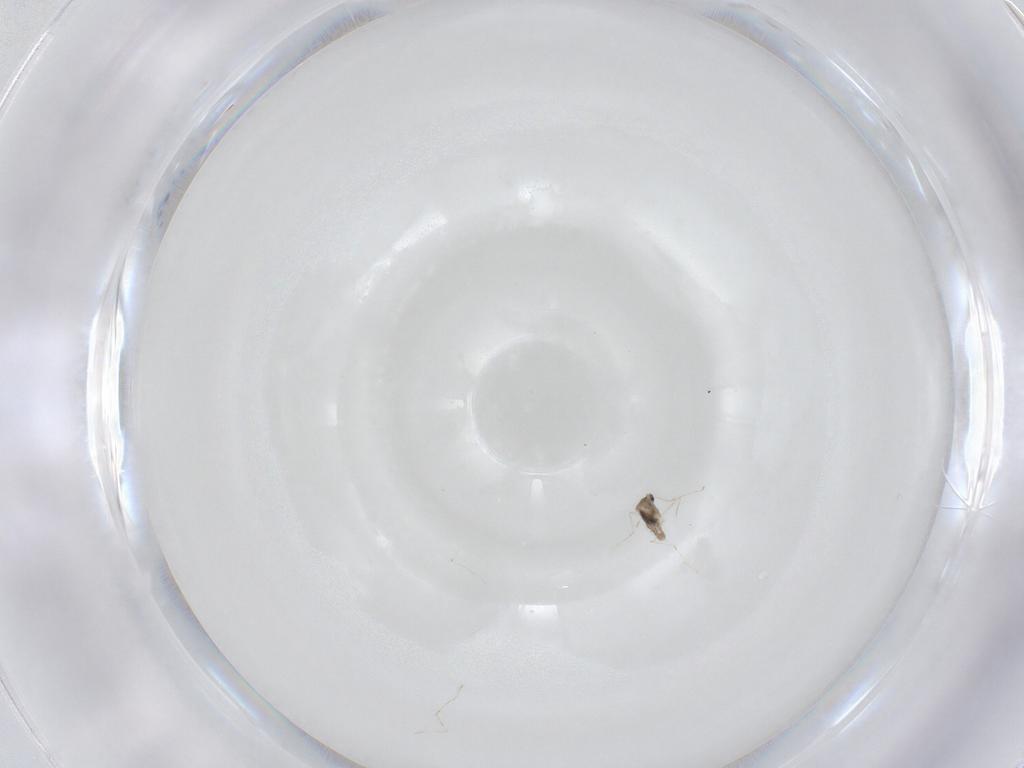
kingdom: Animalia
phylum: Arthropoda
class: Insecta
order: Diptera
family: Cecidomyiidae
